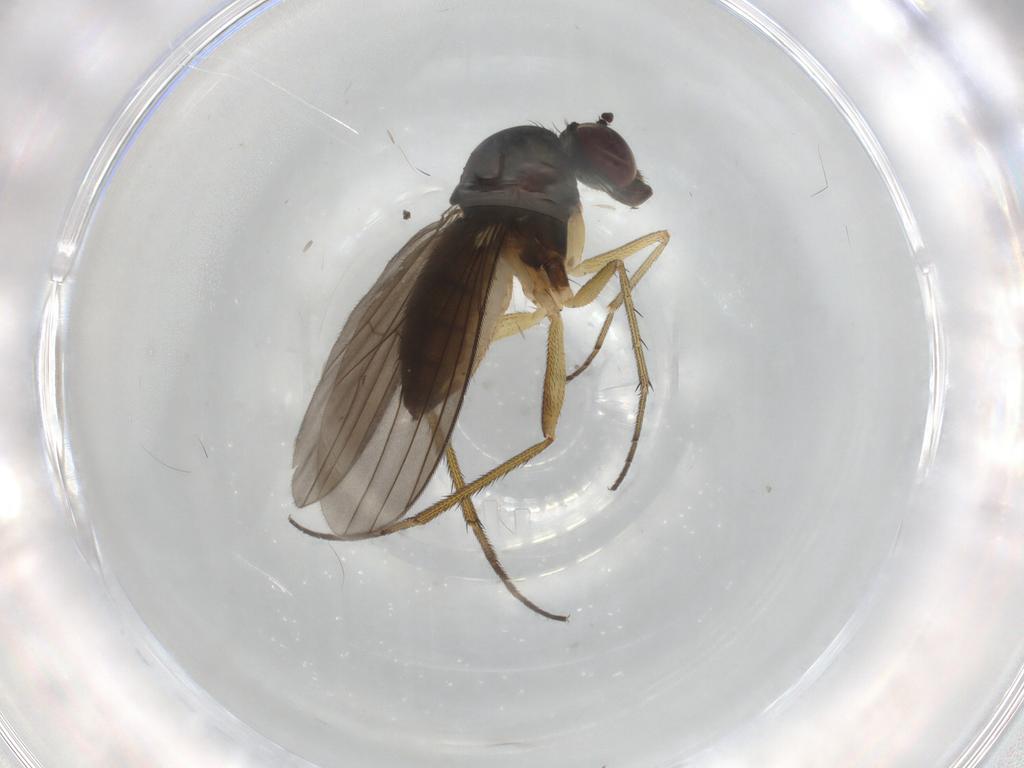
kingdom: Animalia
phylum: Arthropoda
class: Insecta
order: Diptera
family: Dolichopodidae
